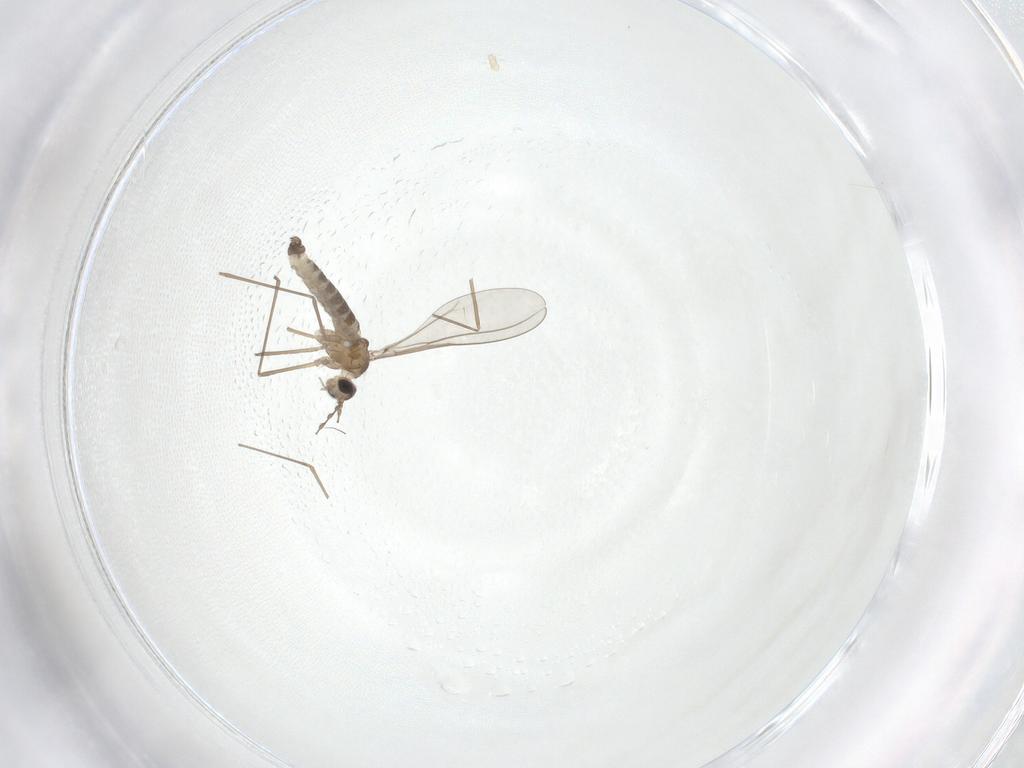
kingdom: Animalia
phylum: Arthropoda
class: Insecta
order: Diptera
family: Cecidomyiidae
